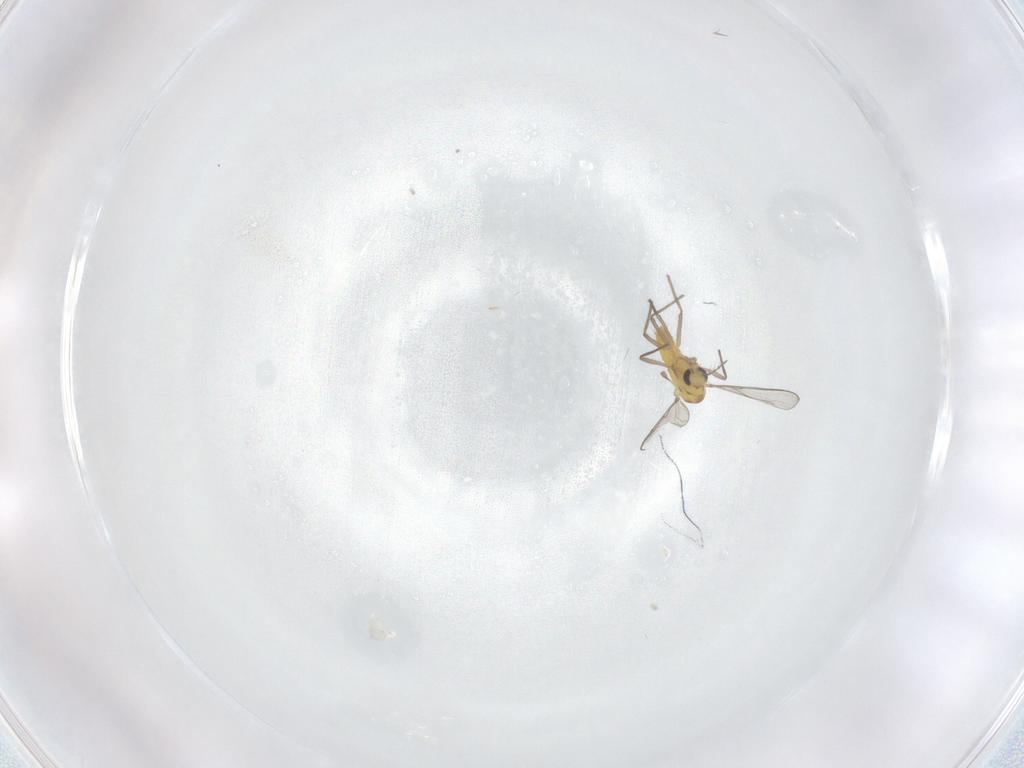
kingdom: Animalia
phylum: Arthropoda
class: Insecta
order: Diptera
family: Chironomidae
